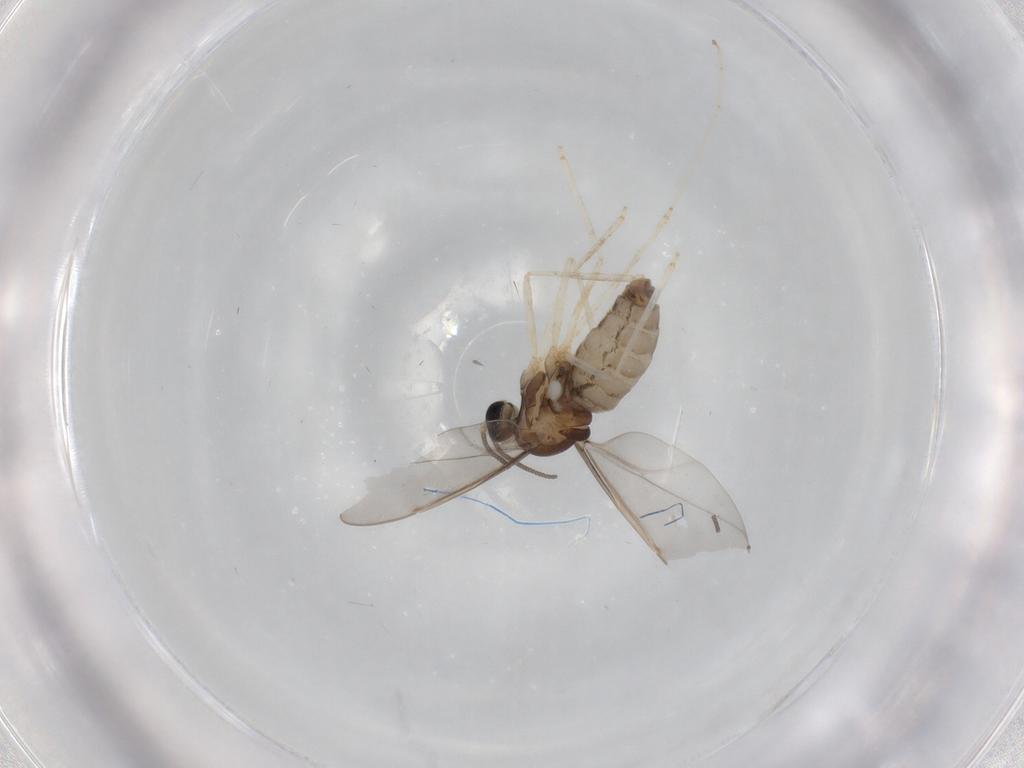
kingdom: Animalia
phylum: Arthropoda
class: Insecta
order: Diptera
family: Cecidomyiidae
